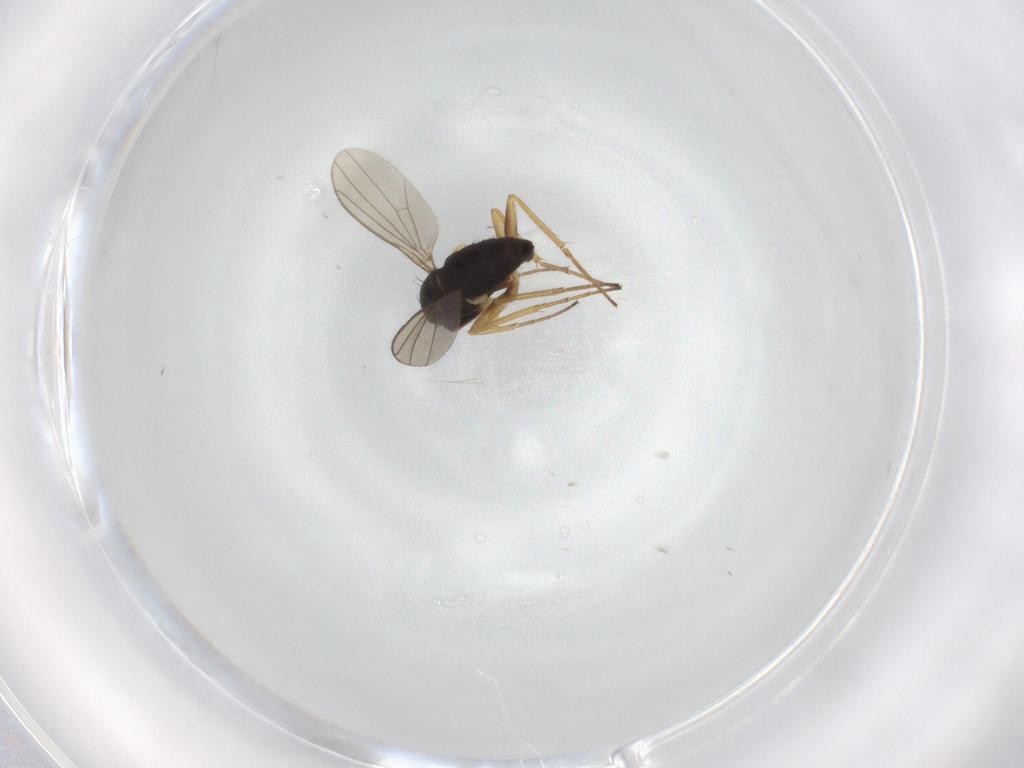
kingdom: Animalia
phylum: Arthropoda
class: Insecta
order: Diptera
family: Dolichopodidae
